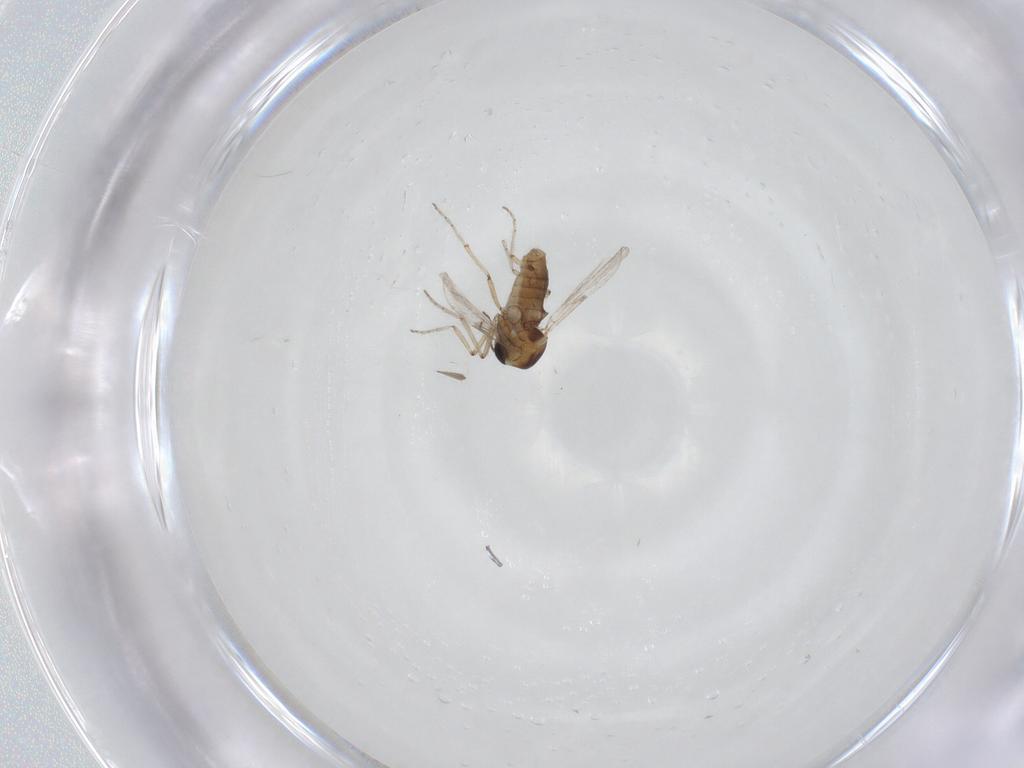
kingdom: Animalia
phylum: Arthropoda
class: Insecta
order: Diptera
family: Ceratopogonidae
